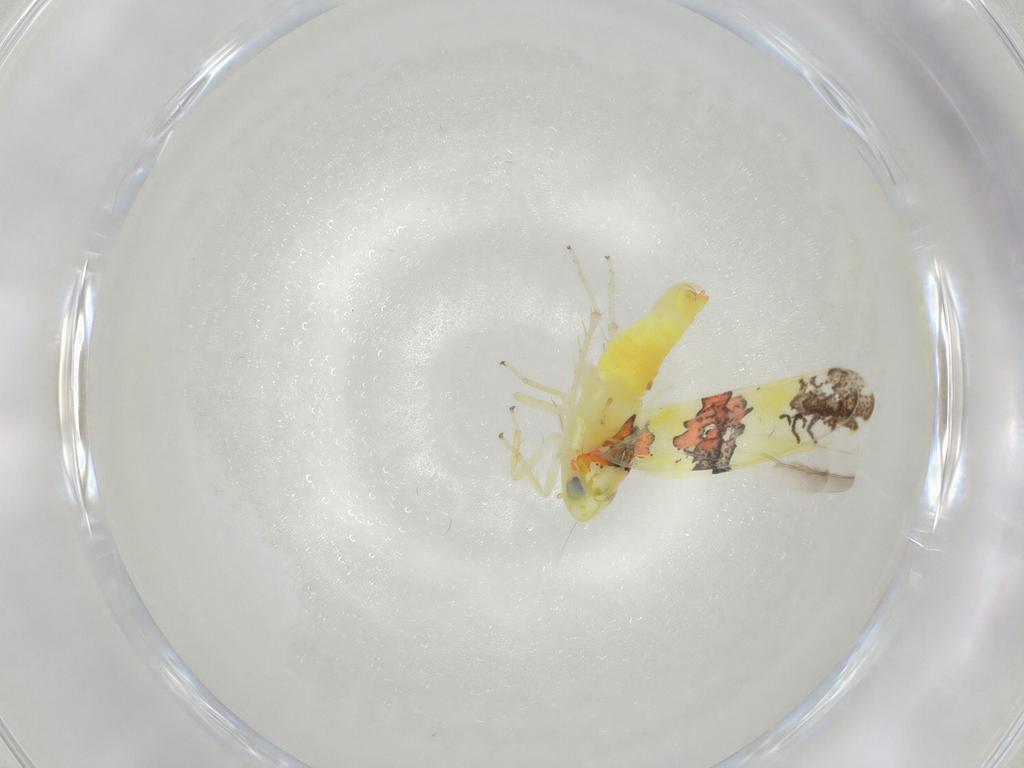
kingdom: Animalia
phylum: Arthropoda
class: Insecta
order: Hemiptera
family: Cicadellidae
